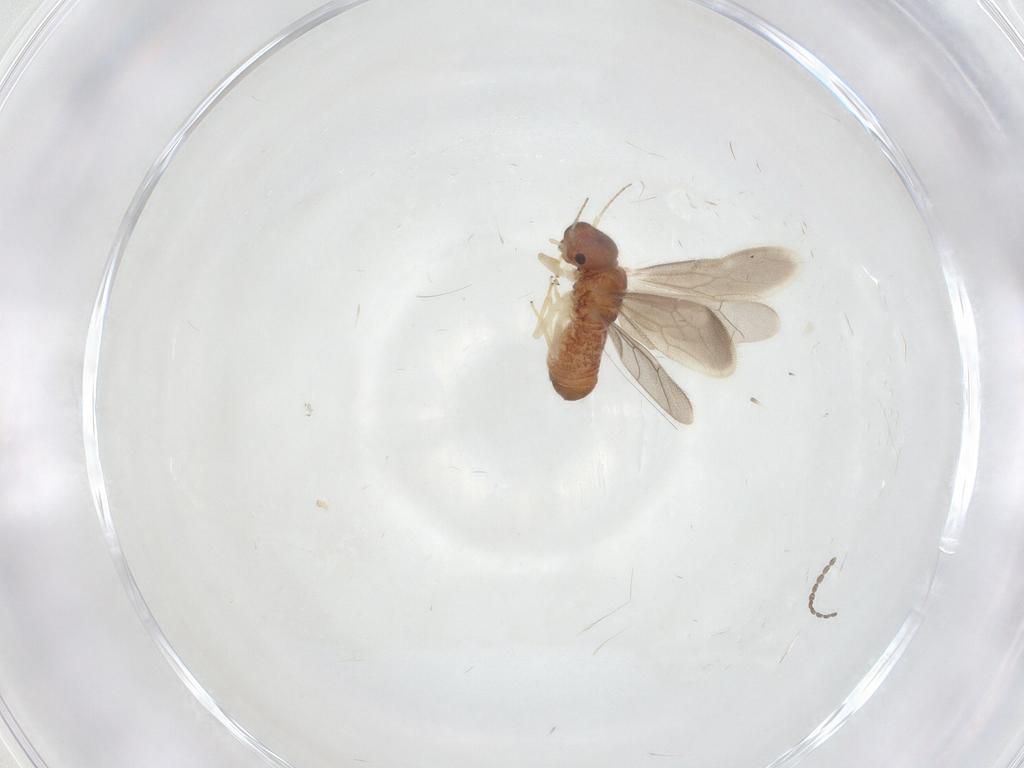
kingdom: Animalia
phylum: Arthropoda
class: Insecta
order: Psocodea
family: Archipsocidae
